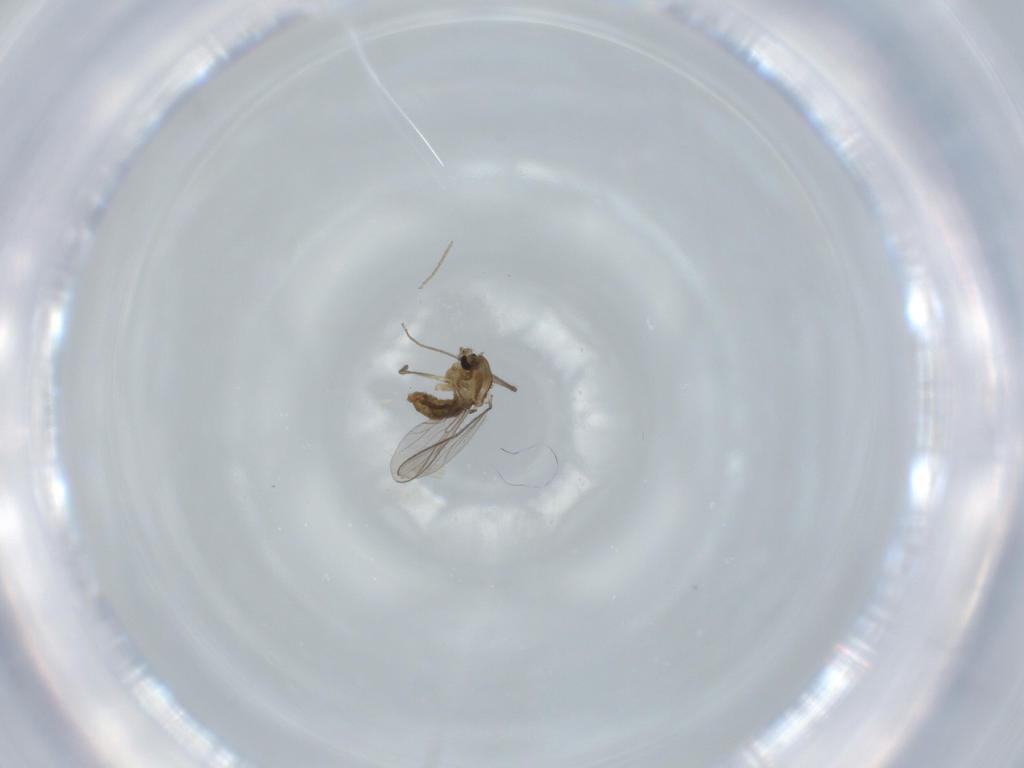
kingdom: Animalia
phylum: Arthropoda
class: Insecta
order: Diptera
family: Chironomidae
